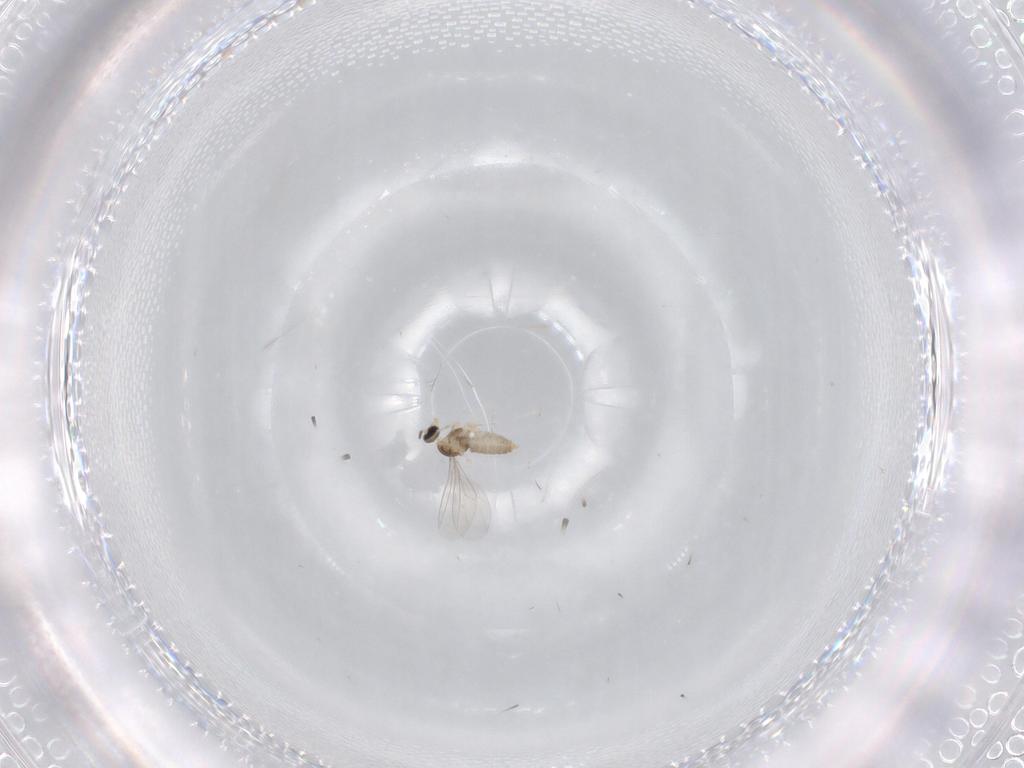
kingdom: Animalia
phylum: Arthropoda
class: Insecta
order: Diptera
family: Cecidomyiidae
